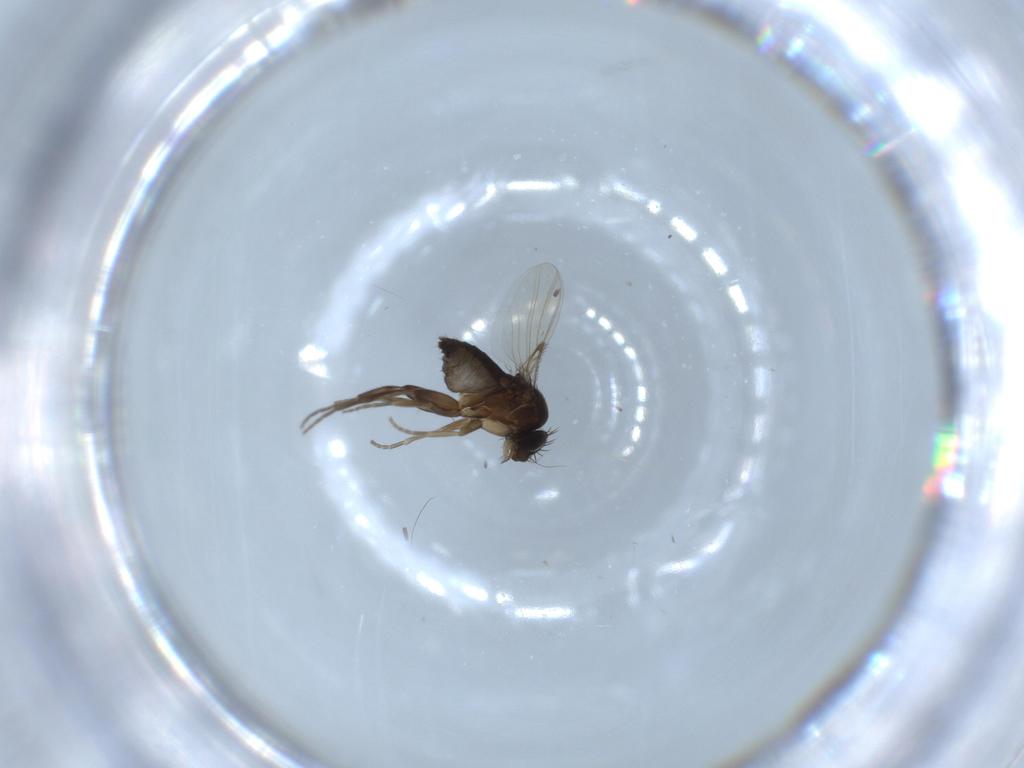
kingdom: Animalia
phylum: Arthropoda
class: Insecta
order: Diptera
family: Phoridae
